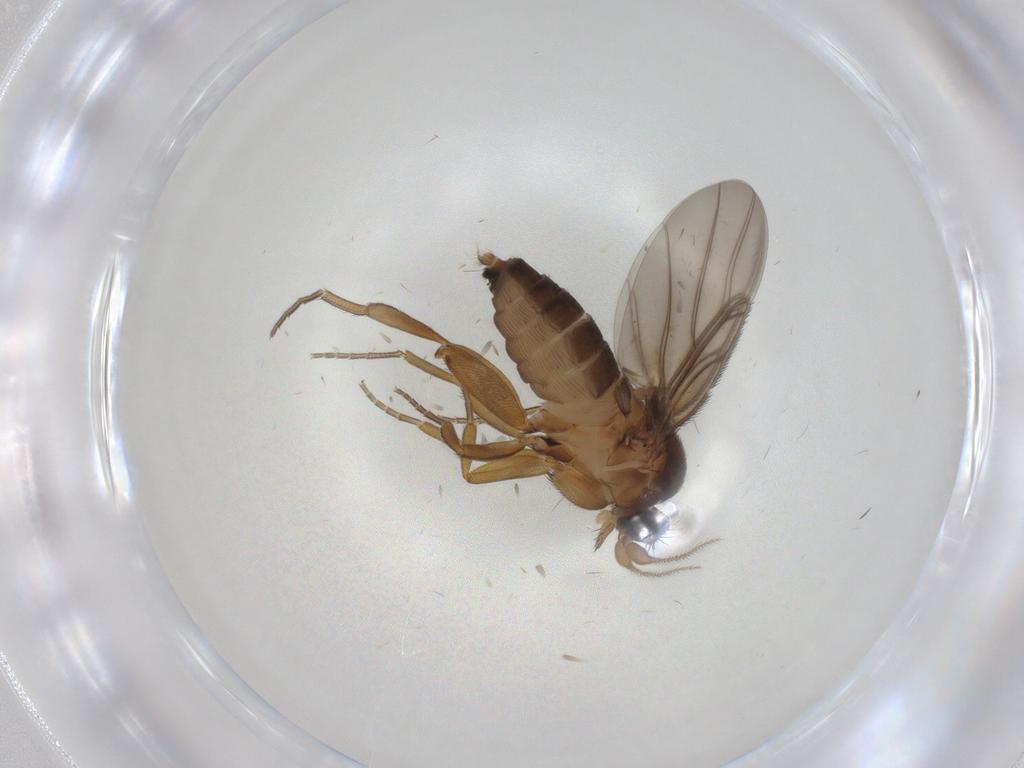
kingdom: Animalia
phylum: Arthropoda
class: Insecta
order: Diptera
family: Phoridae
